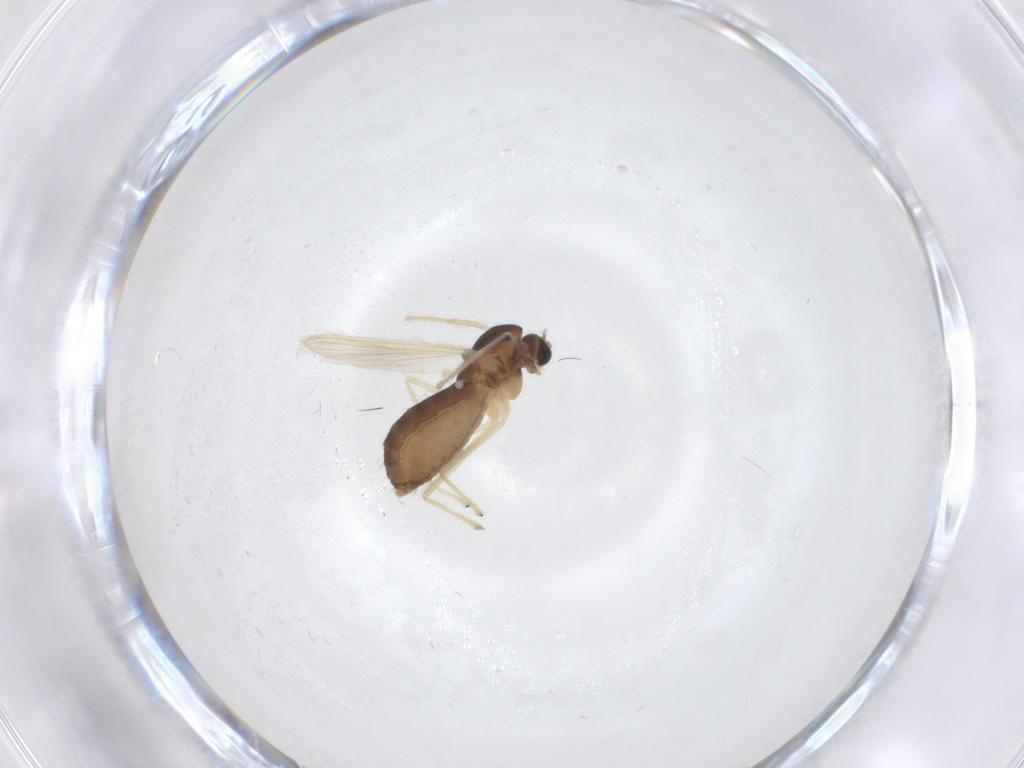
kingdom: Animalia
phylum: Arthropoda
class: Insecta
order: Diptera
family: Chironomidae
